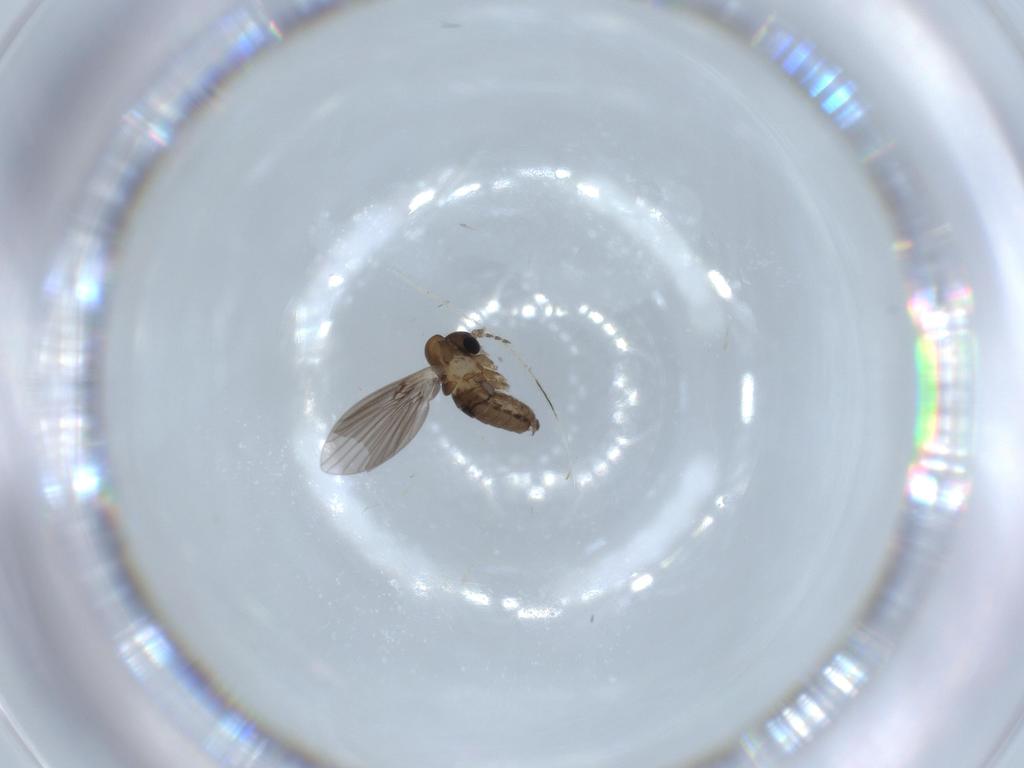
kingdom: Animalia
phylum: Arthropoda
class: Insecta
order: Diptera
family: Psychodidae
